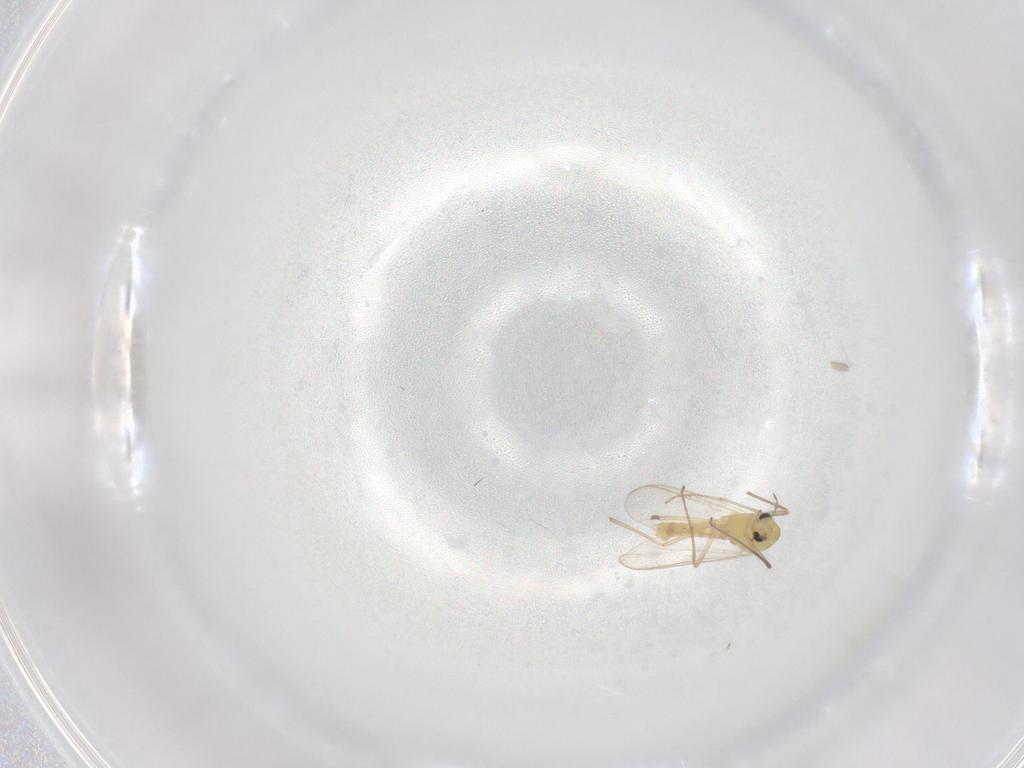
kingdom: Animalia
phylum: Arthropoda
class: Insecta
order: Diptera
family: Chironomidae
